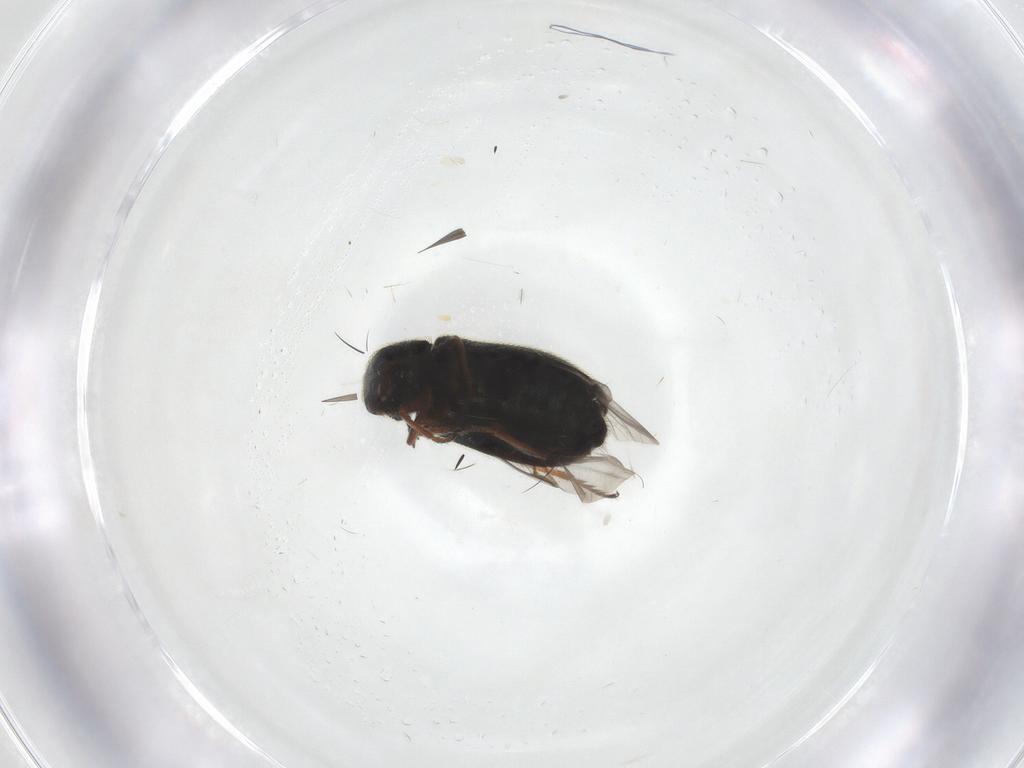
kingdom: Animalia
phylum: Arthropoda
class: Insecta
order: Coleoptera
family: Melyridae
